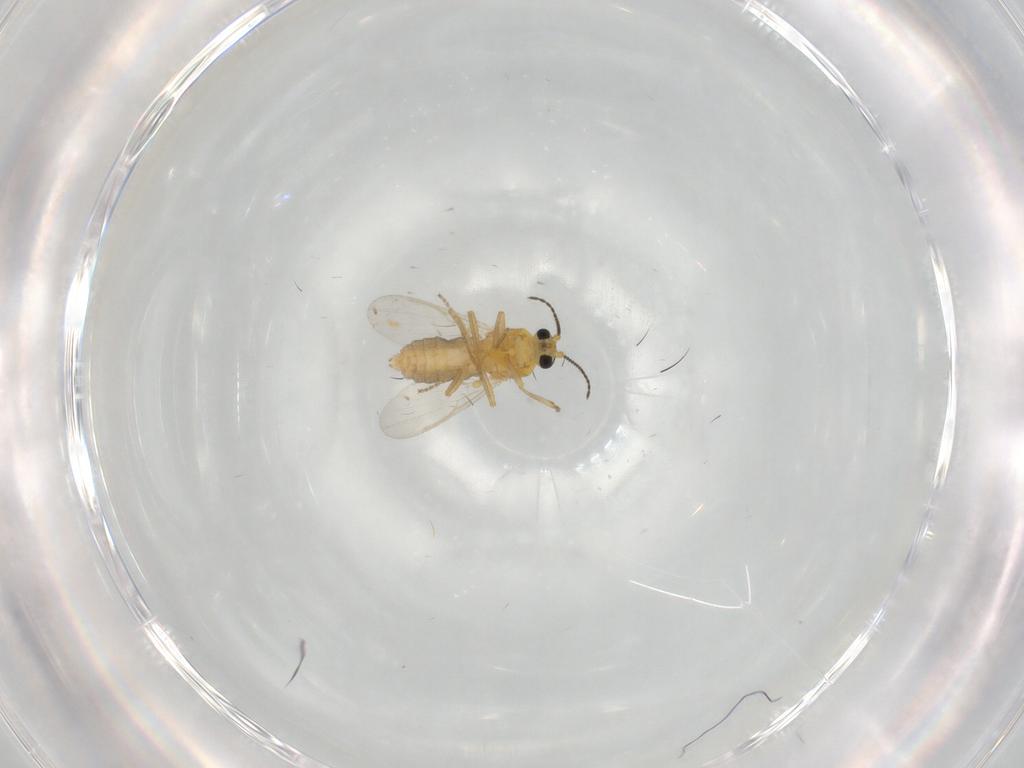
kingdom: Animalia
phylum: Arthropoda
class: Insecta
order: Diptera
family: Ceratopogonidae
